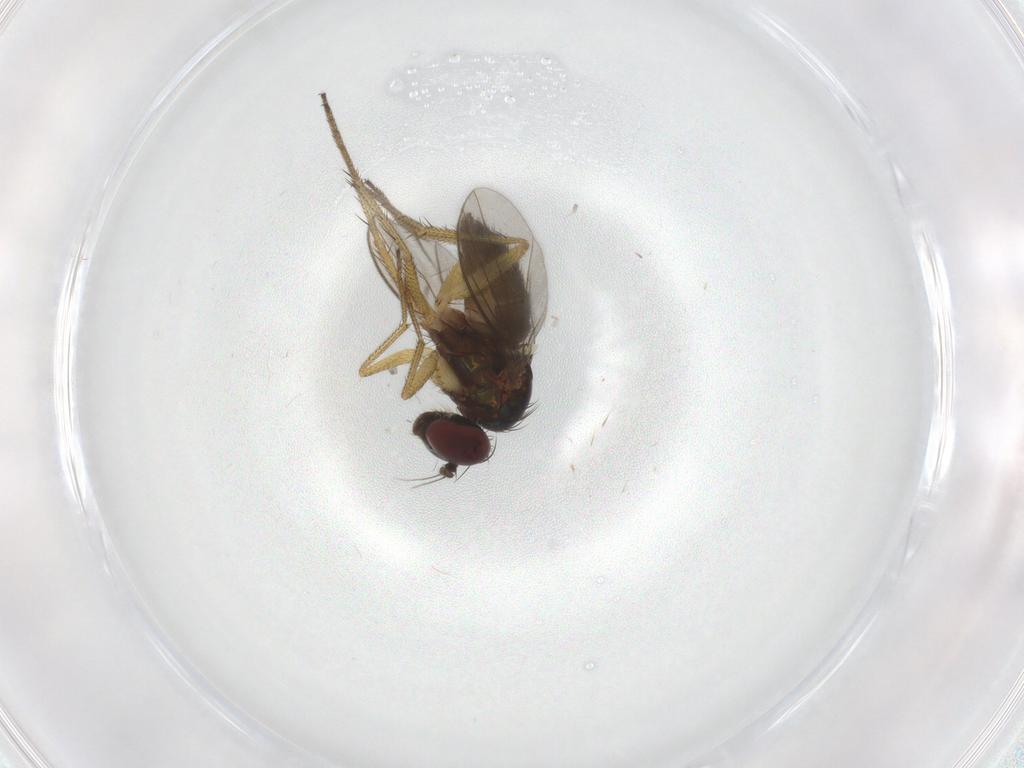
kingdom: Animalia
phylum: Arthropoda
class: Insecta
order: Diptera
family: Dolichopodidae
